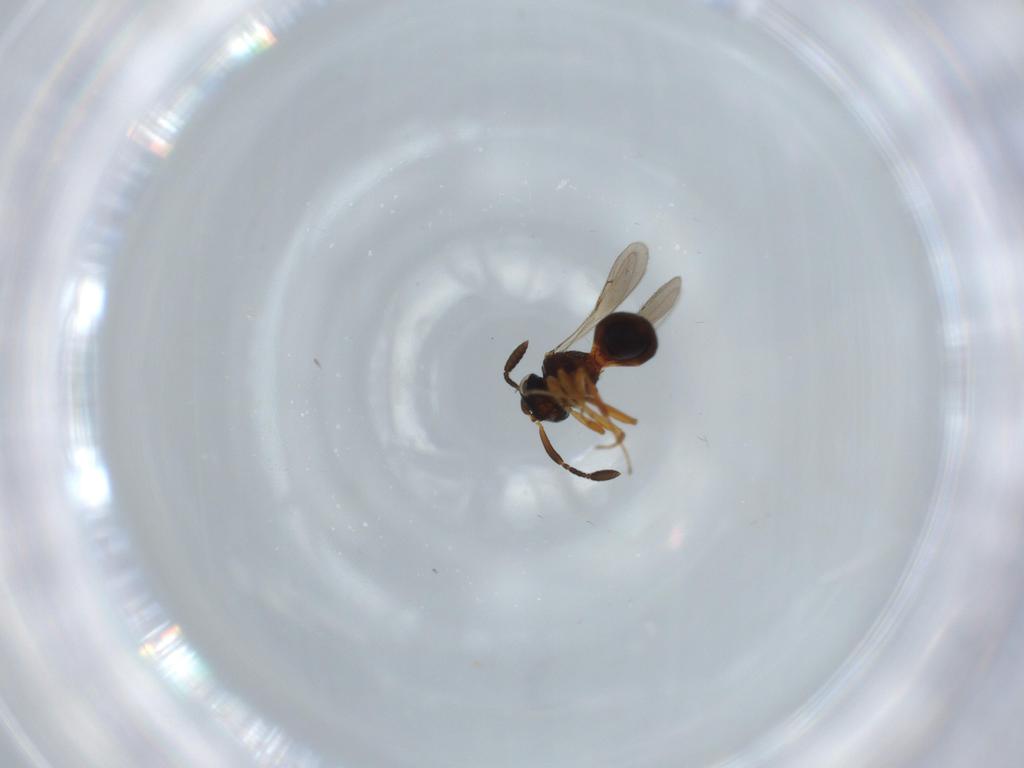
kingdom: Animalia
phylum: Arthropoda
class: Insecta
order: Hymenoptera
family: Scelionidae
